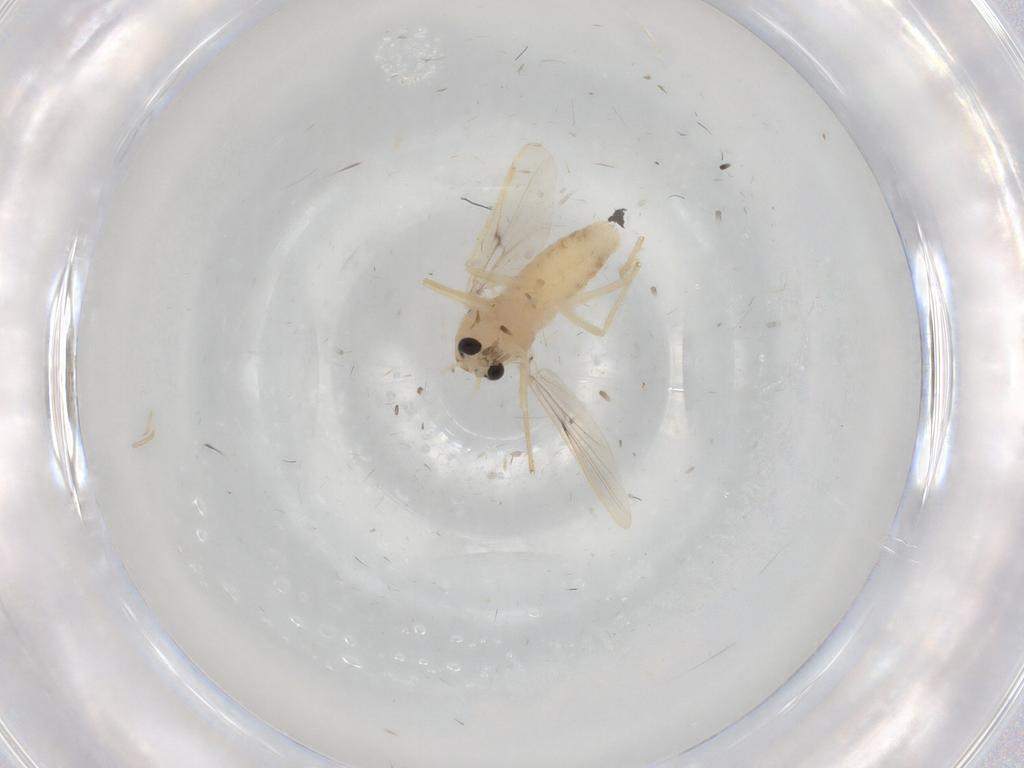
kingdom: Animalia
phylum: Arthropoda
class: Insecta
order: Diptera
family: Chironomidae
